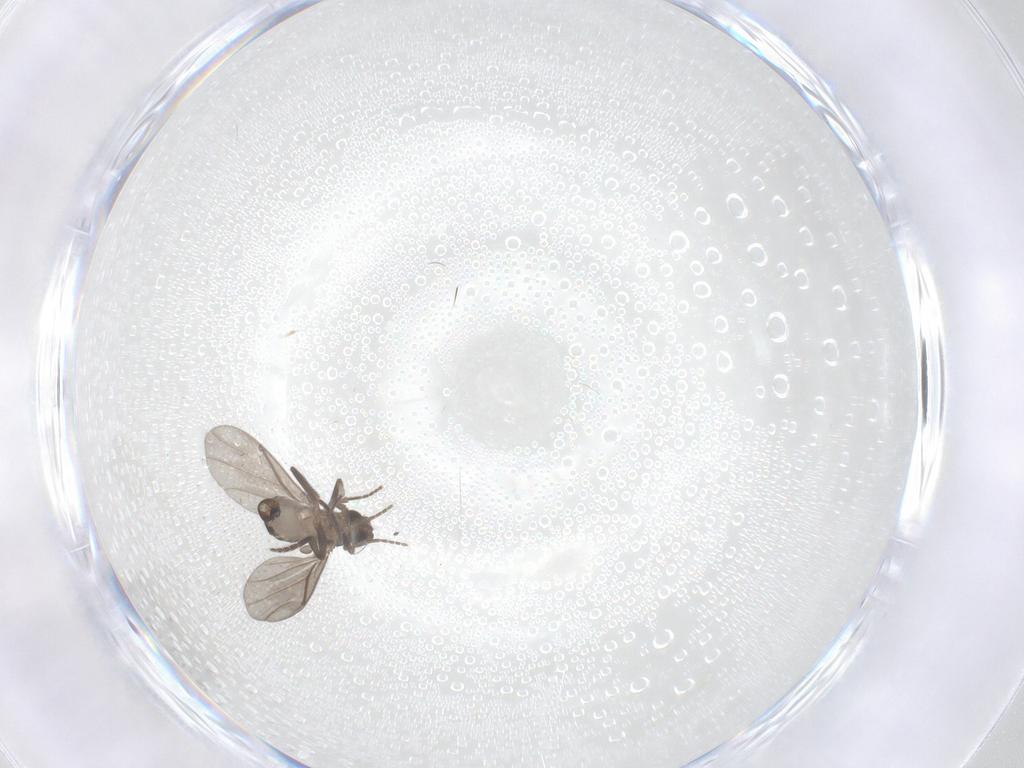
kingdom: Animalia
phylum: Arthropoda
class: Insecta
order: Diptera
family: Phoridae
